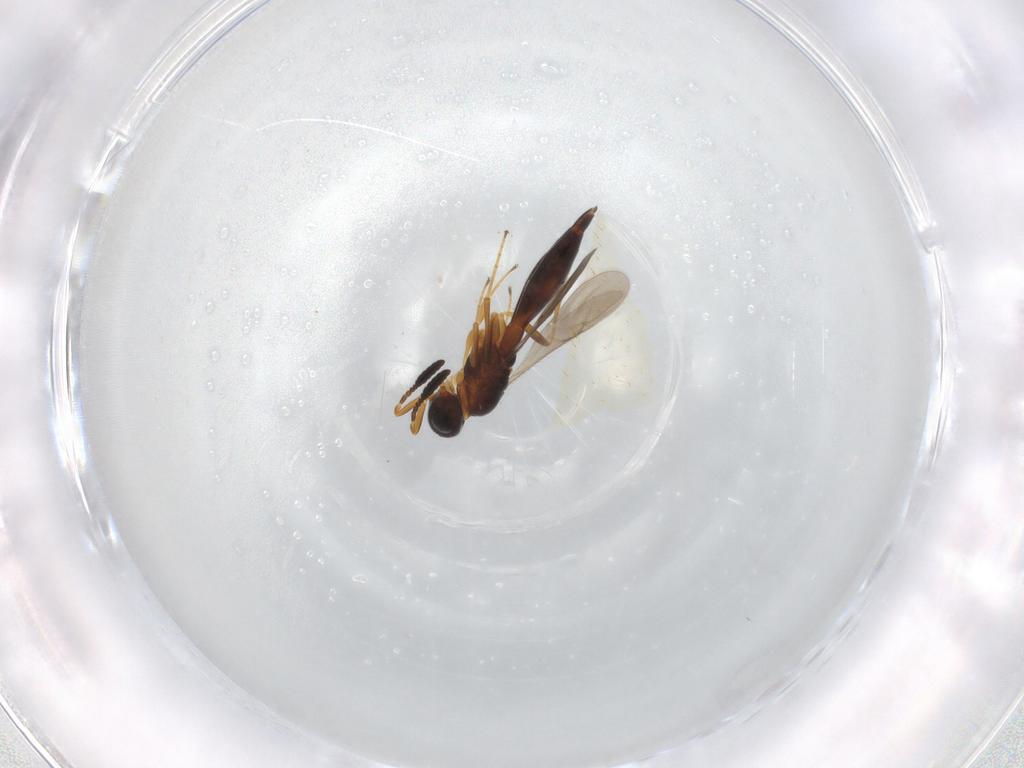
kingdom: Animalia
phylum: Arthropoda
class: Insecta
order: Hymenoptera
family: Scelionidae
